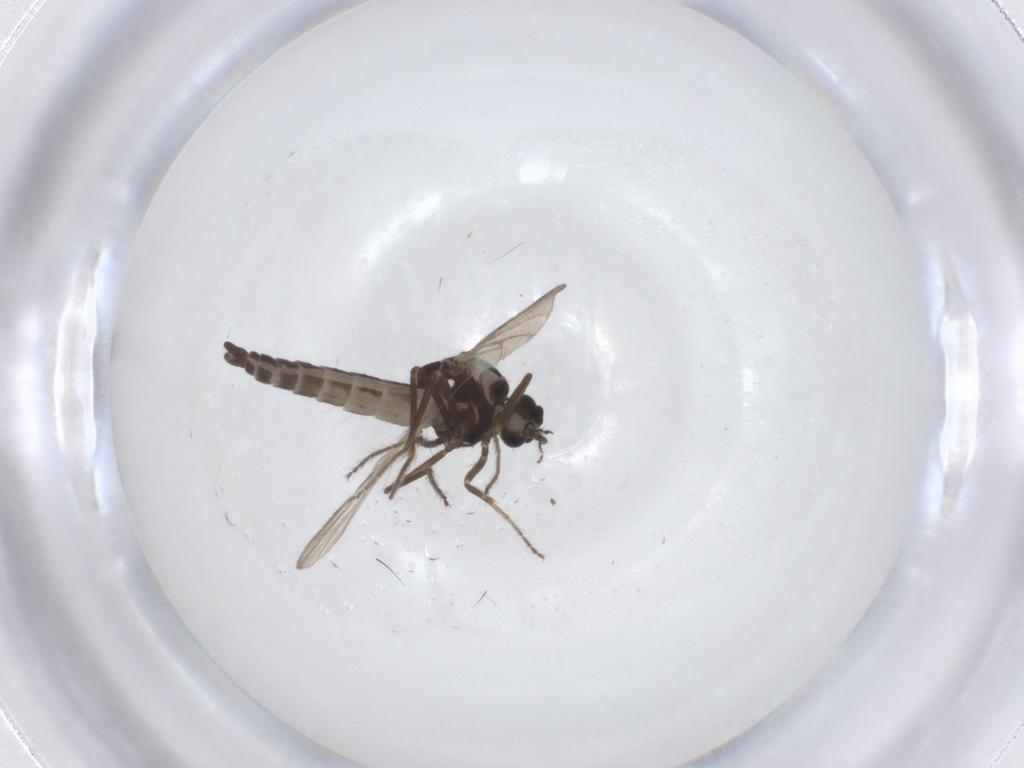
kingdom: Animalia
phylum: Arthropoda
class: Insecta
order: Diptera
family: Ceratopogonidae
